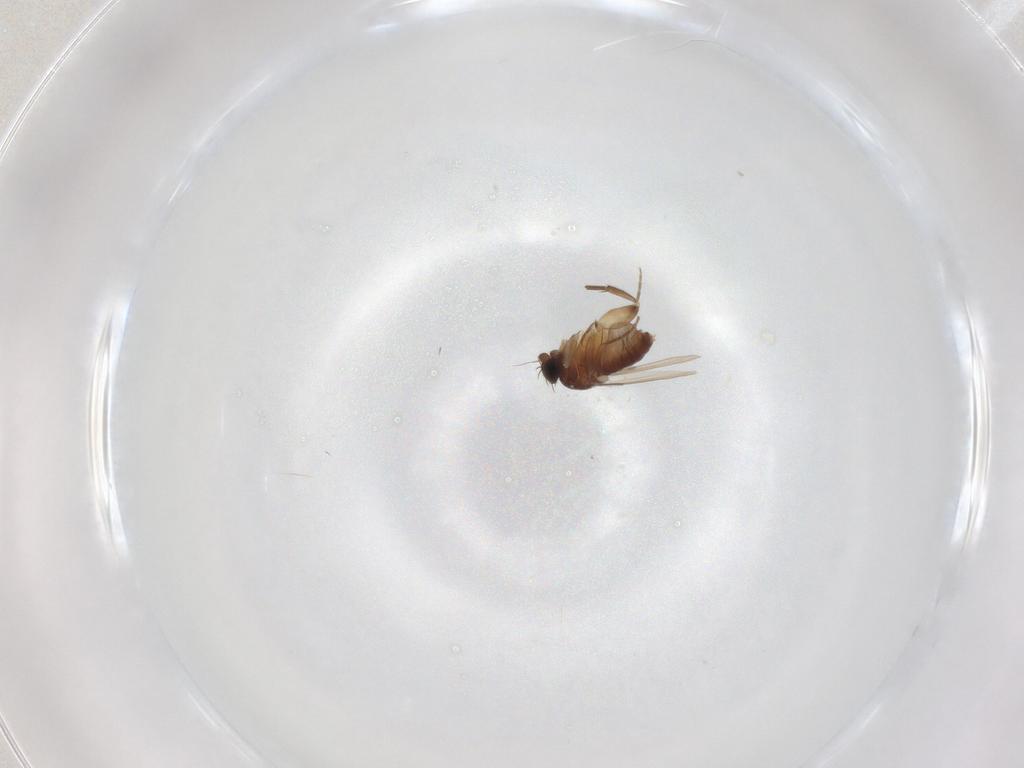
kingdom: Animalia
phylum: Arthropoda
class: Insecta
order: Diptera
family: Phoridae
